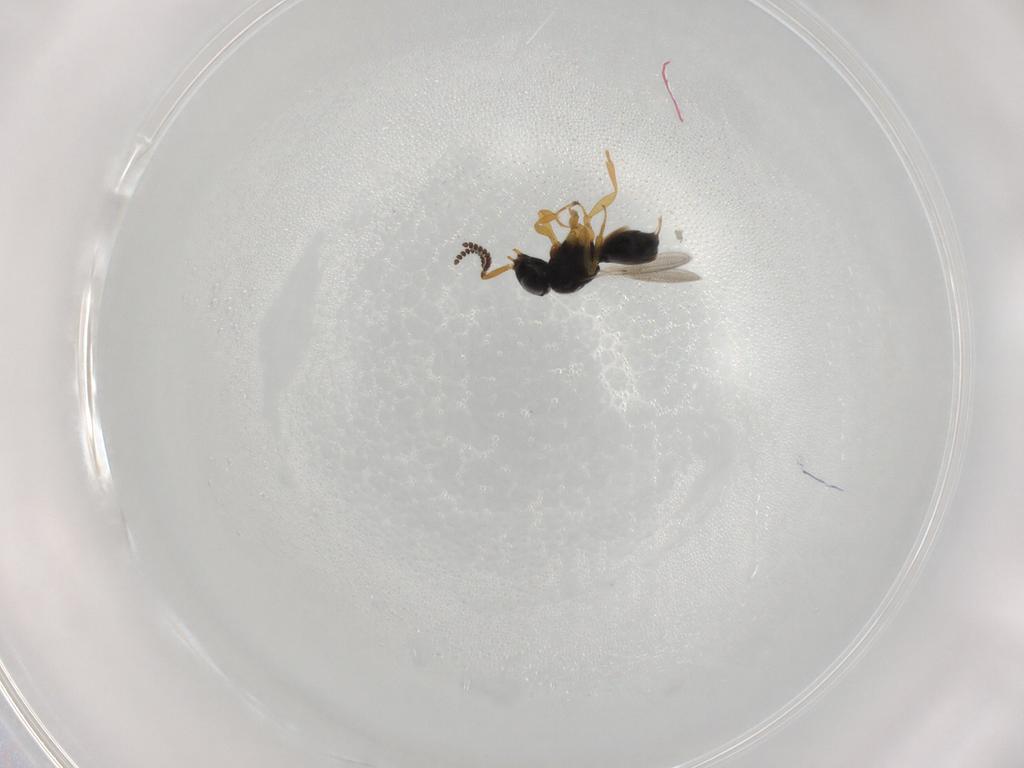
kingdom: Animalia
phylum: Arthropoda
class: Insecta
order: Hymenoptera
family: Scelionidae
